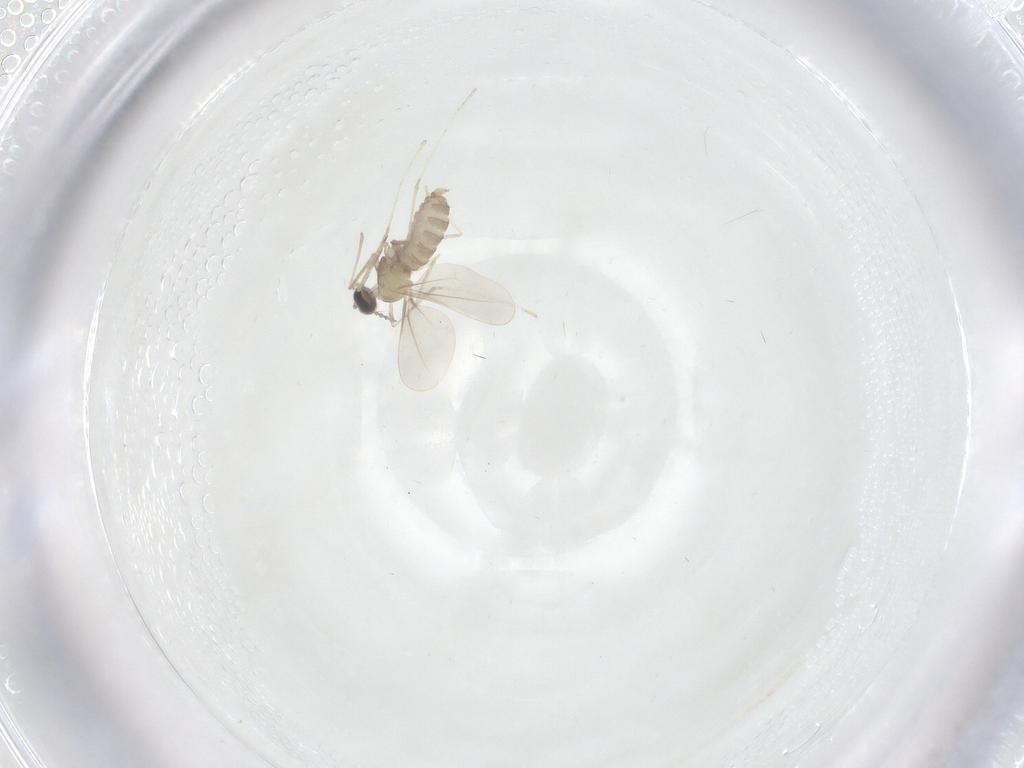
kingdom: Animalia
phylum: Arthropoda
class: Insecta
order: Diptera
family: Cecidomyiidae
